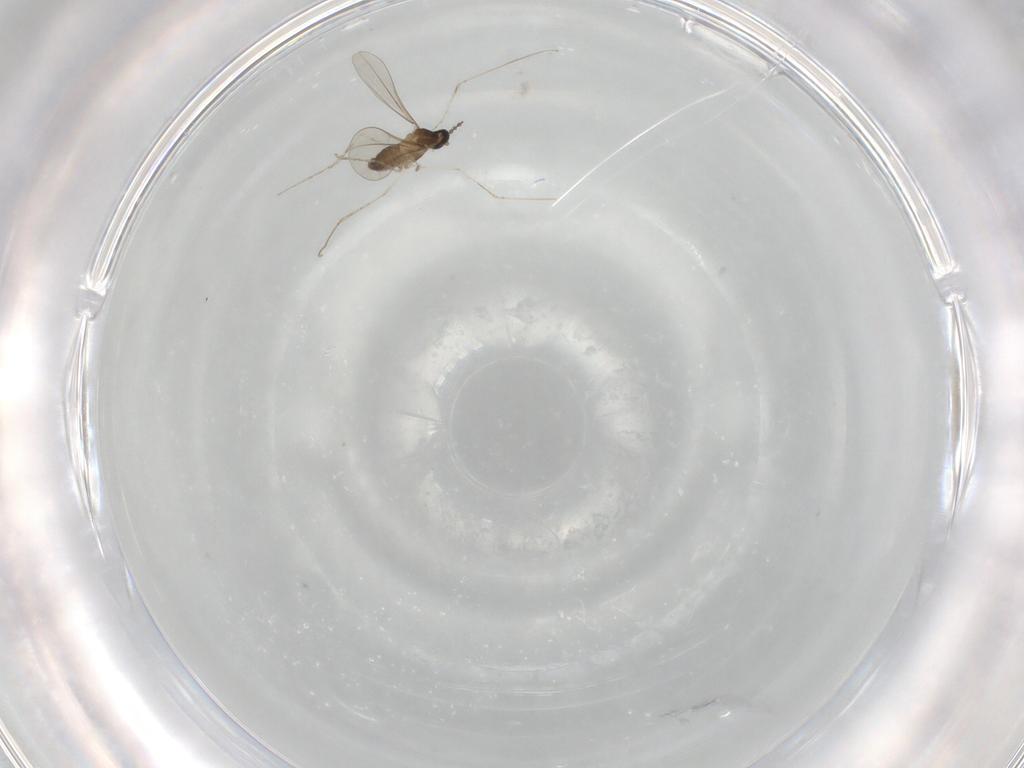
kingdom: Animalia
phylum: Arthropoda
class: Insecta
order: Diptera
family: Cecidomyiidae
